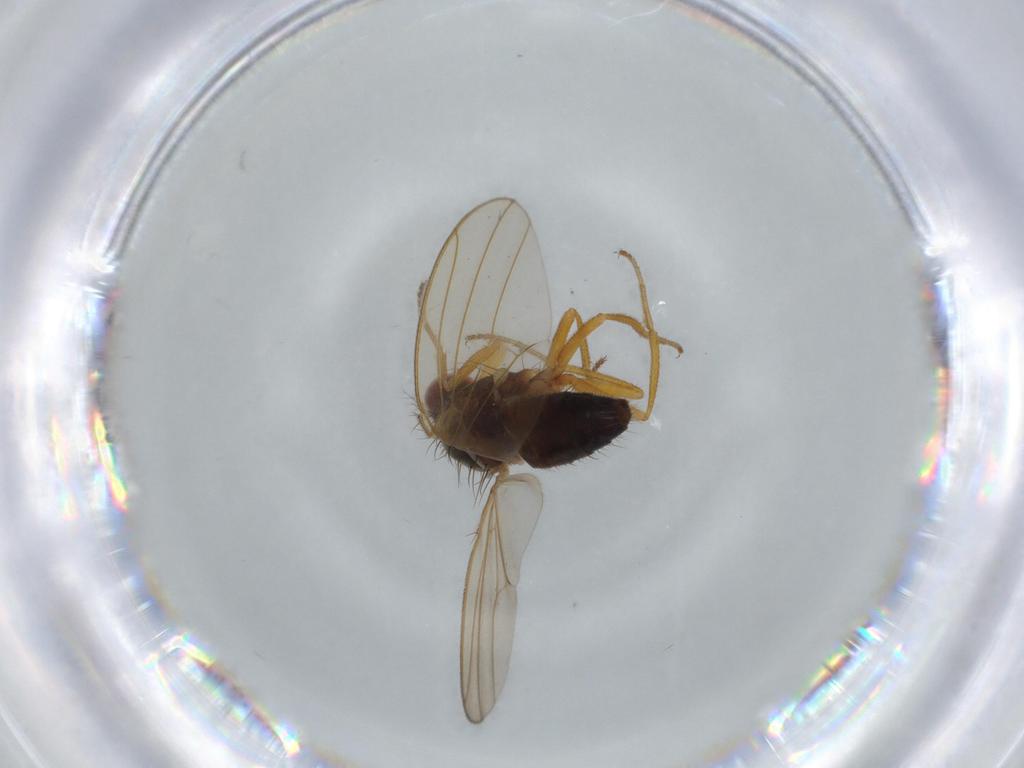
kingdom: Animalia
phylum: Arthropoda
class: Insecta
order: Diptera
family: Drosophilidae
